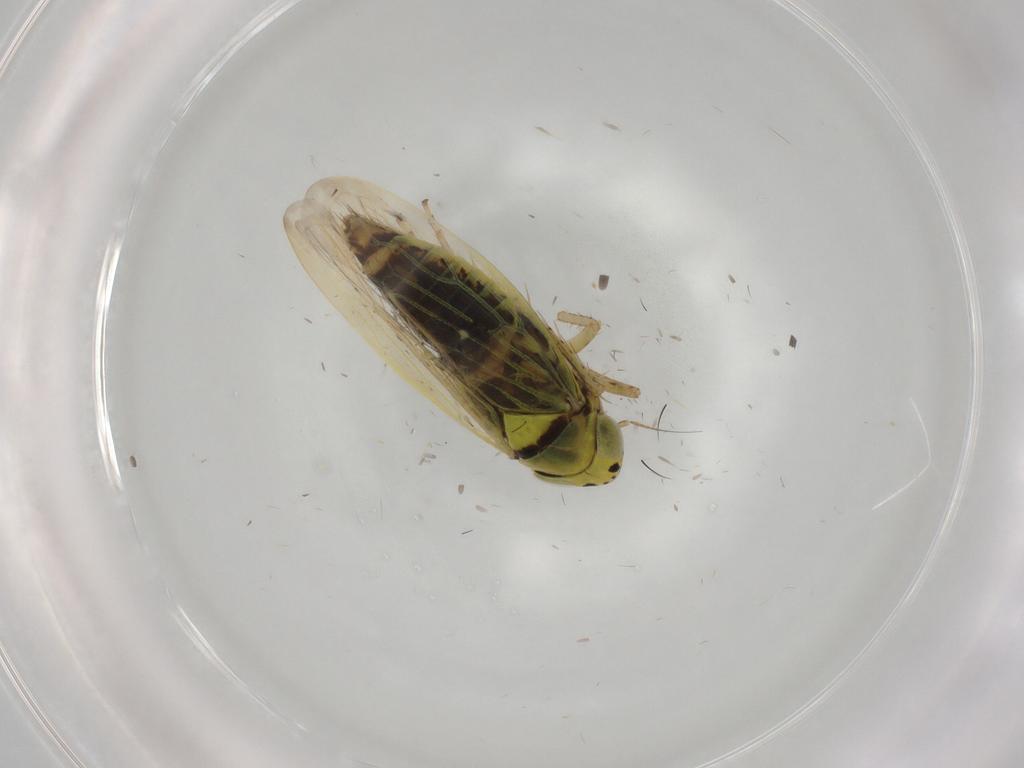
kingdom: Animalia
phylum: Arthropoda
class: Insecta
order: Hemiptera
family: Cicadellidae
